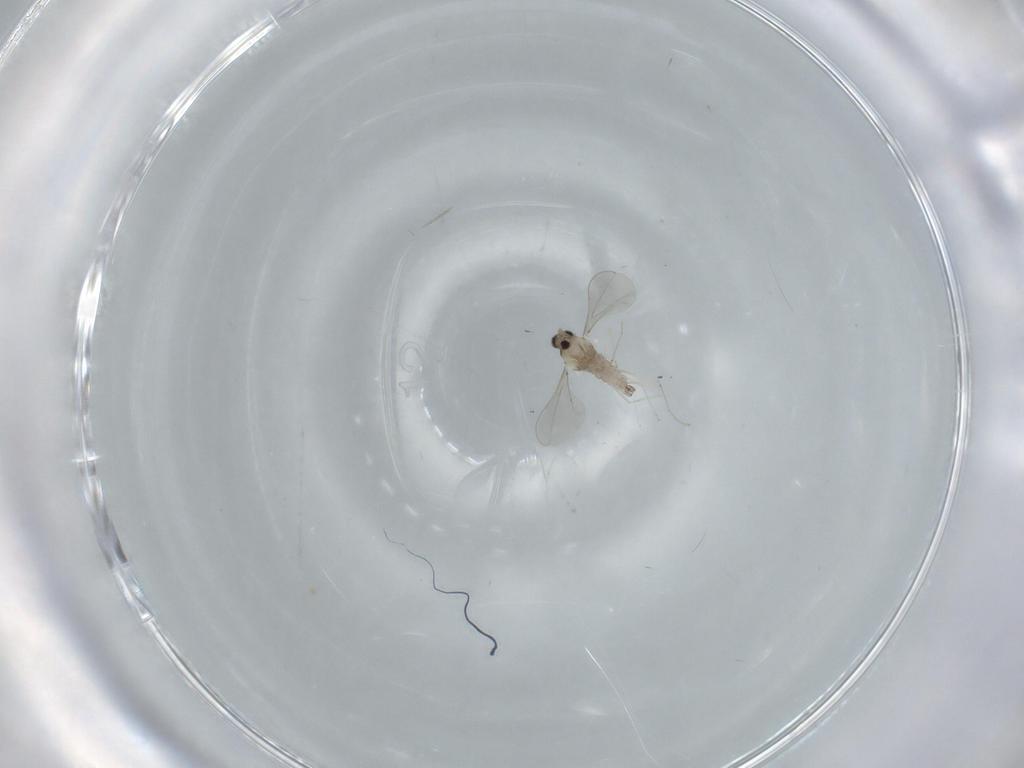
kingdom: Animalia
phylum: Arthropoda
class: Insecta
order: Diptera
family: Cecidomyiidae
